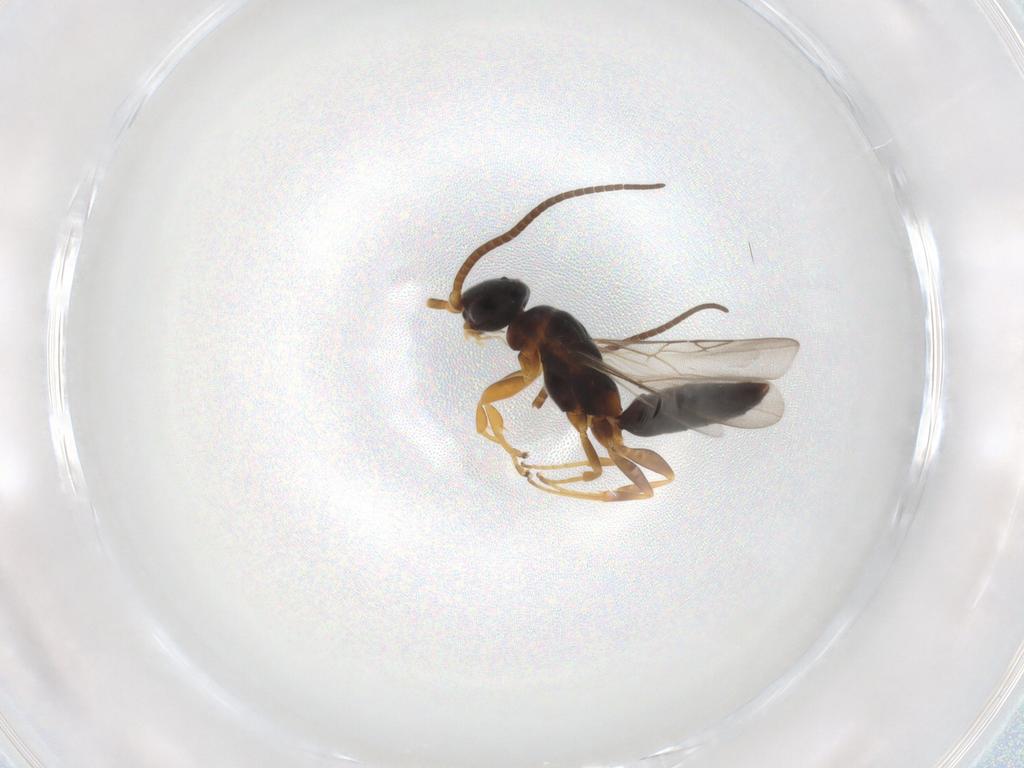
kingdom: Animalia
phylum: Arthropoda
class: Insecta
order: Hymenoptera
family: Sclerogibbidae
